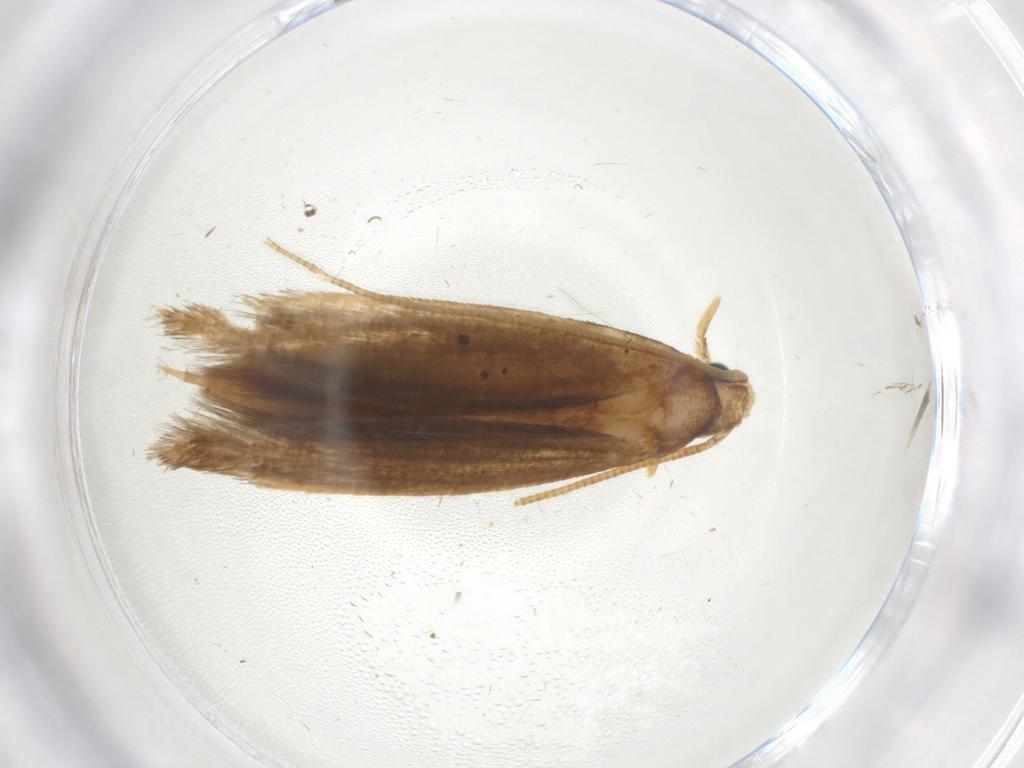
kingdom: Animalia
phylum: Arthropoda
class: Insecta
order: Lepidoptera
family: Tineidae
